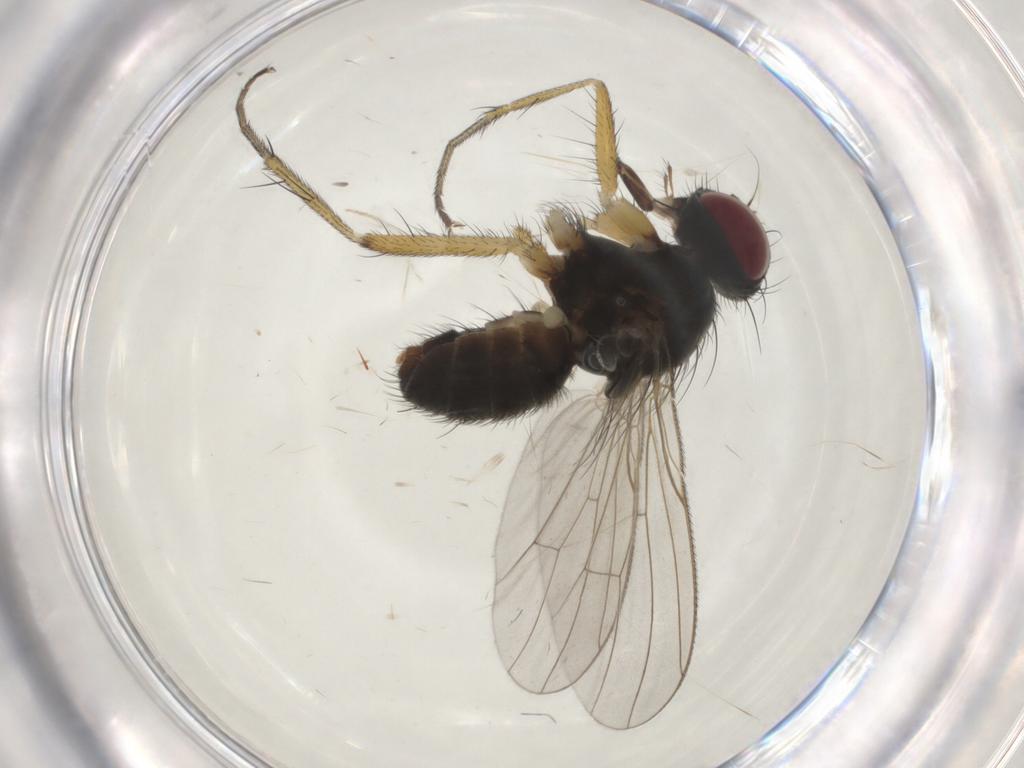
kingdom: Animalia
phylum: Arthropoda
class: Insecta
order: Diptera
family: Muscidae
